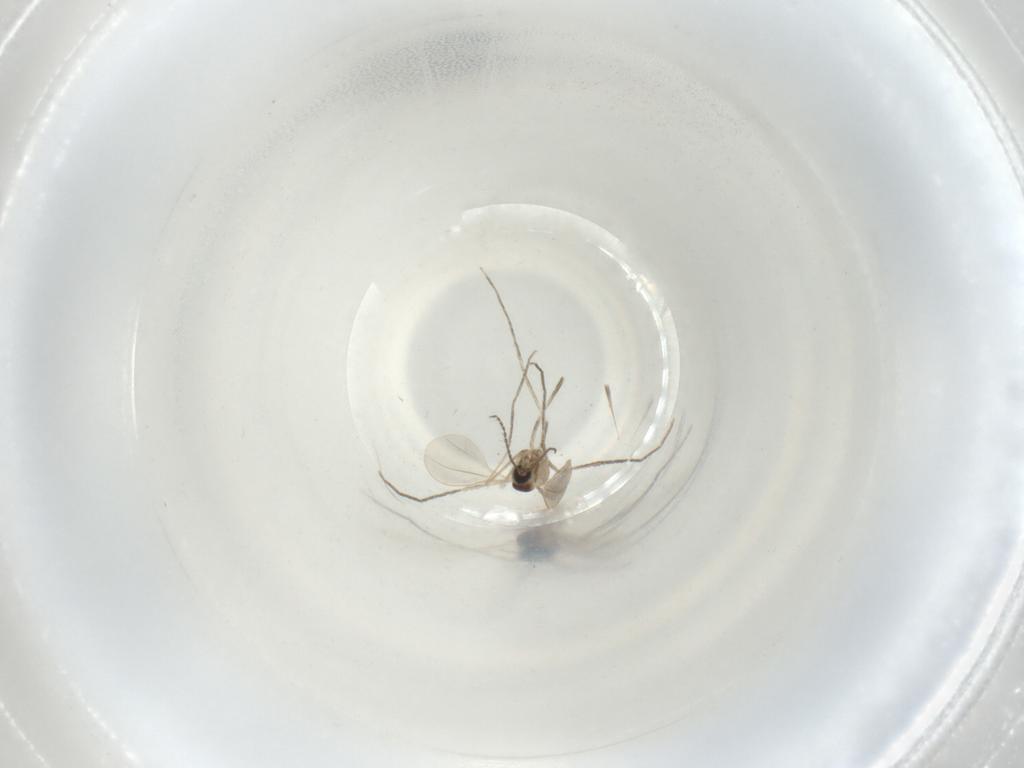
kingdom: Animalia
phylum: Arthropoda
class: Insecta
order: Diptera
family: Cecidomyiidae
